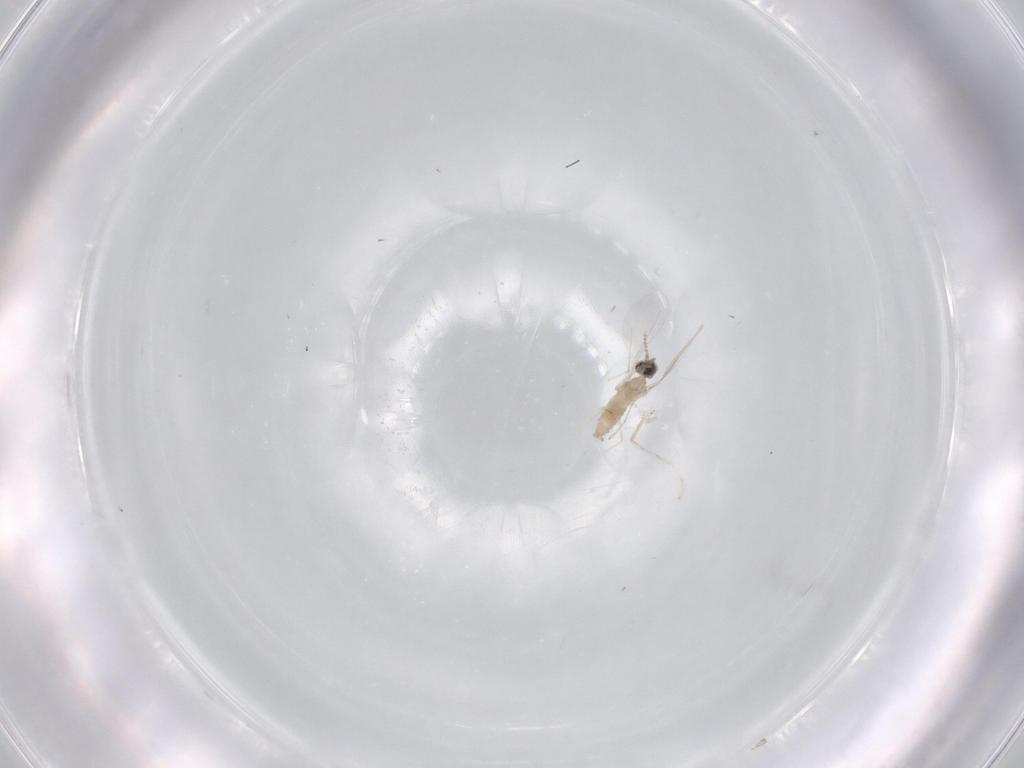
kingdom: Animalia
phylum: Arthropoda
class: Insecta
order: Diptera
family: Cecidomyiidae
